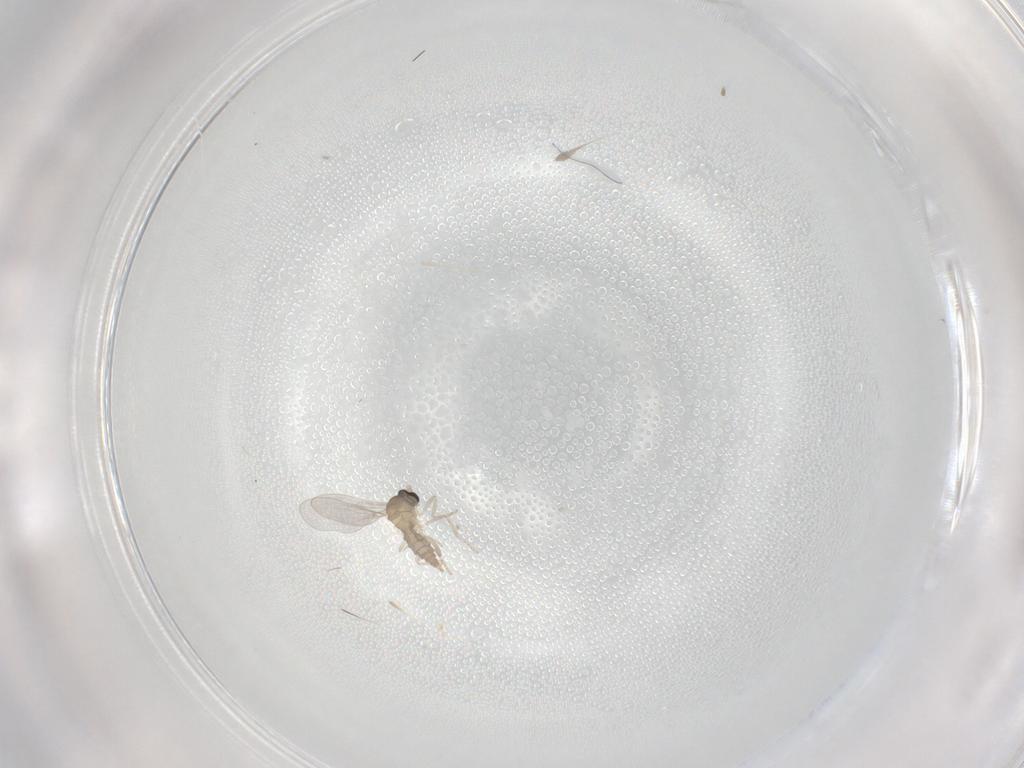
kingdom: Animalia
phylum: Arthropoda
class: Insecta
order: Diptera
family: Cecidomyiidae
